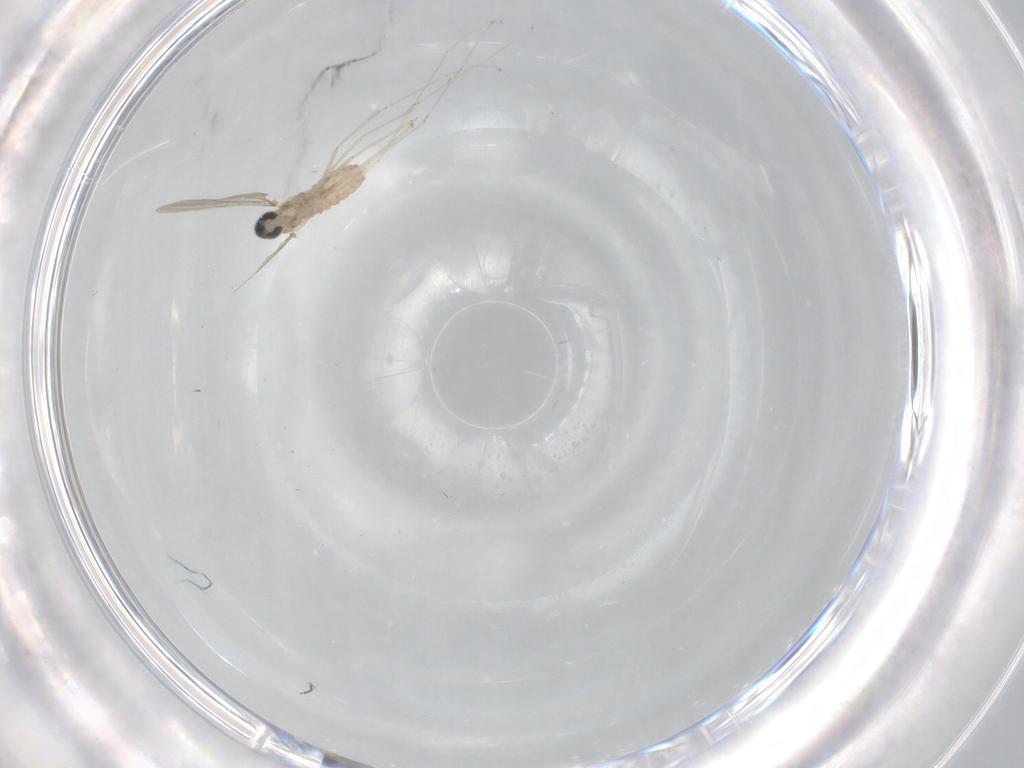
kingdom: Animalia
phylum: Arthropoda
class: Insecta
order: Diptera
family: Cecidomyiidae
